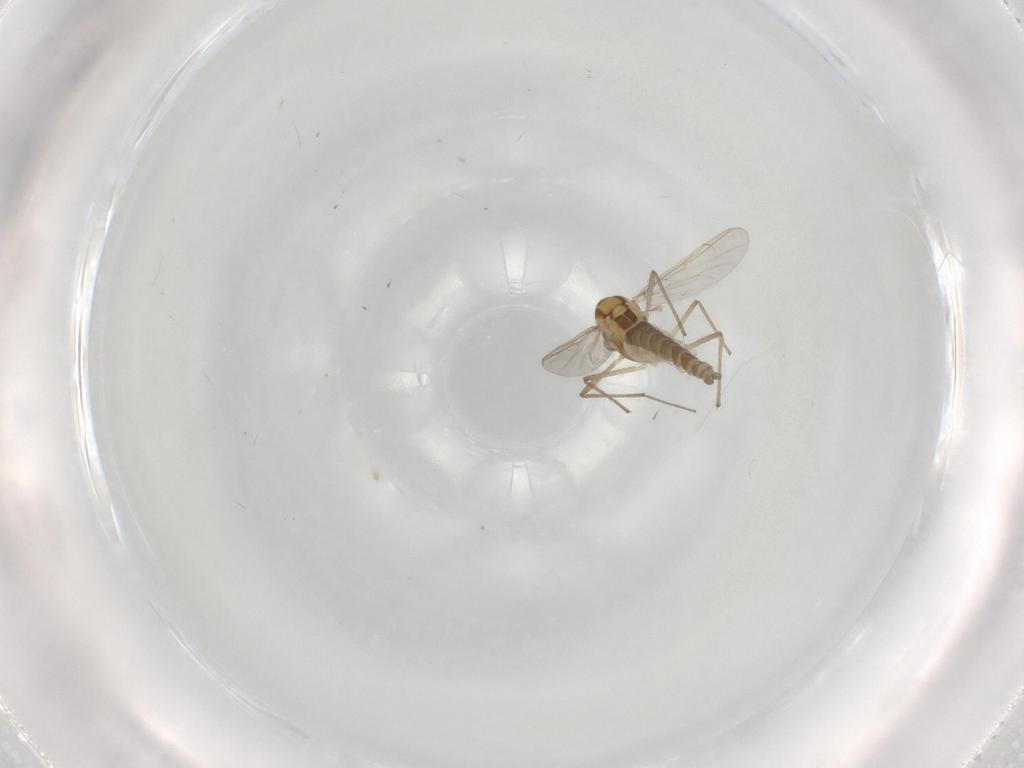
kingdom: Animalia
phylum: Arthropoda
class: Insecta
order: Diptera
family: Chironomidae
